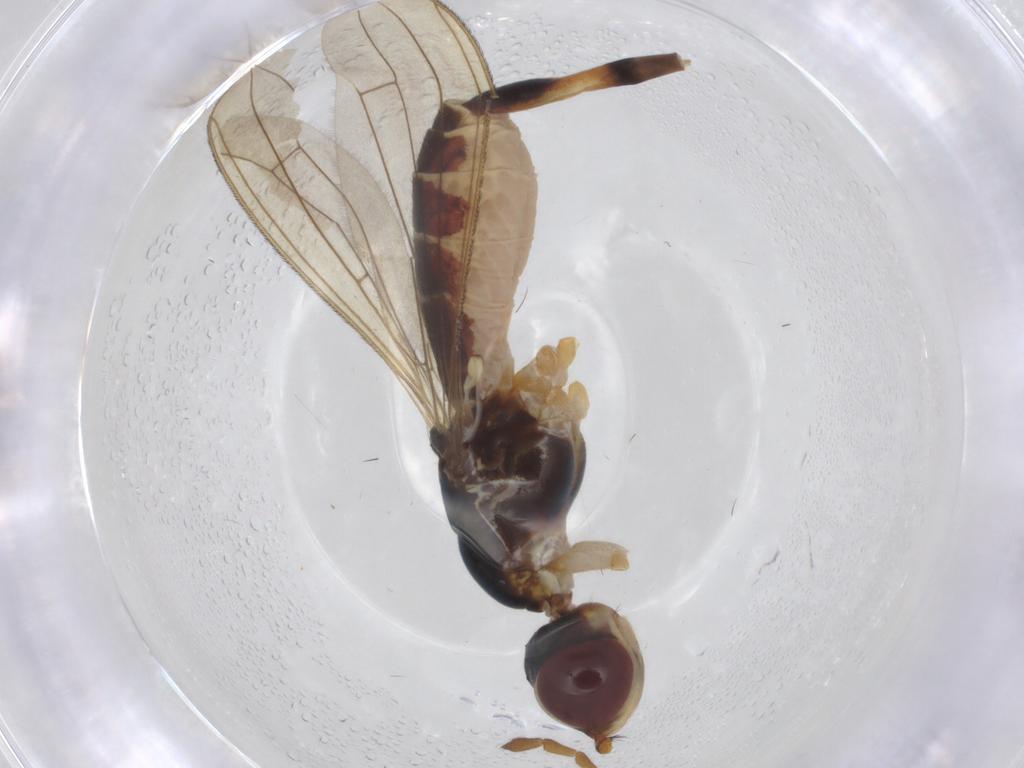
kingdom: Animalia
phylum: Arthropoda
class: Insecta
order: Diptera
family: Micropezidae
